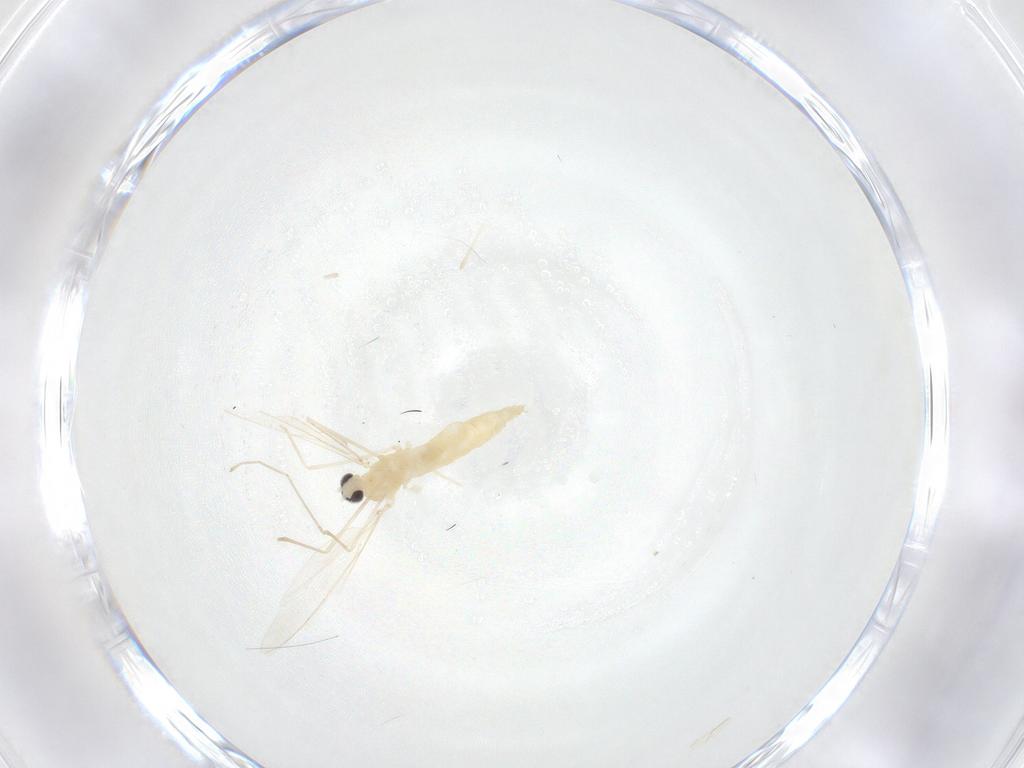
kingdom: Animalia
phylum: Arthropoda
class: Insecta
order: Diptera
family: Cecidomyiidae
